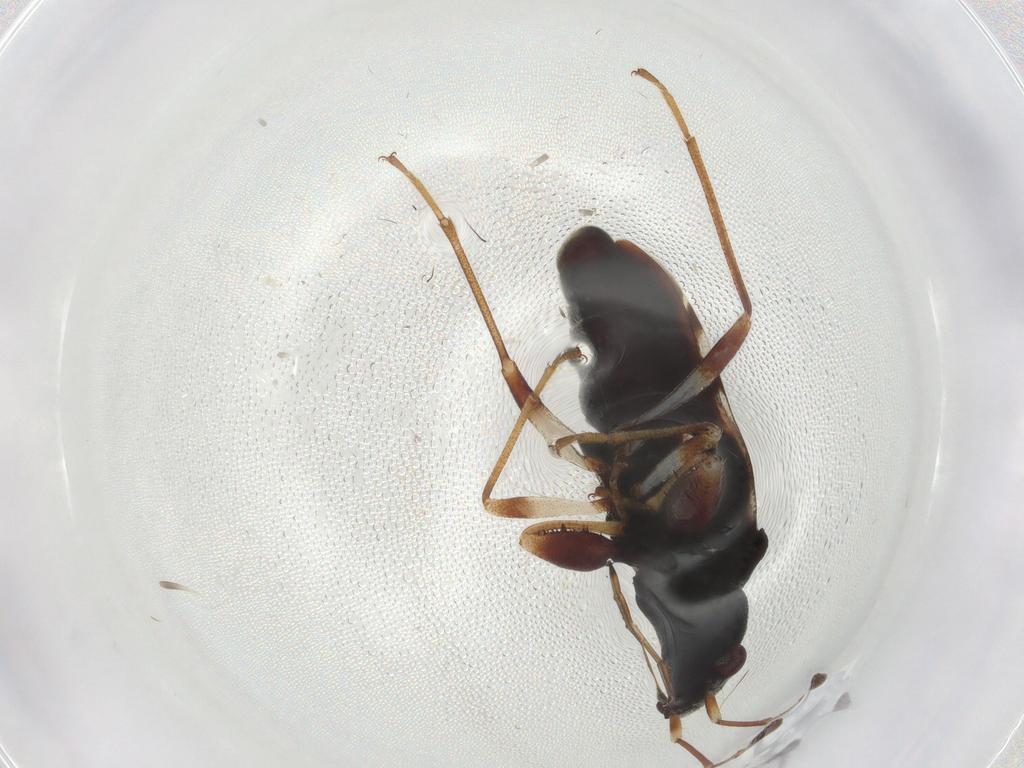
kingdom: Animalia
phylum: Arthropoda
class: Insecta
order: Hemiptera
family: Rhyparochromidae
